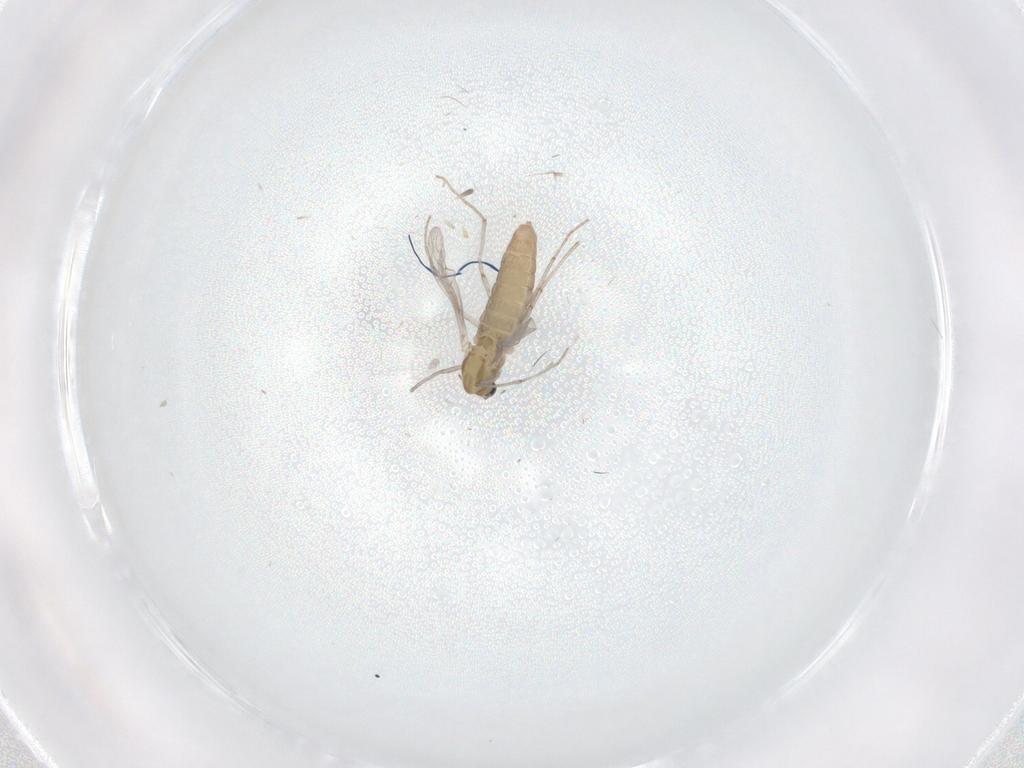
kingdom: Animalia
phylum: Arthropoda
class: Insecta
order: Diptera
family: Chironomidae
